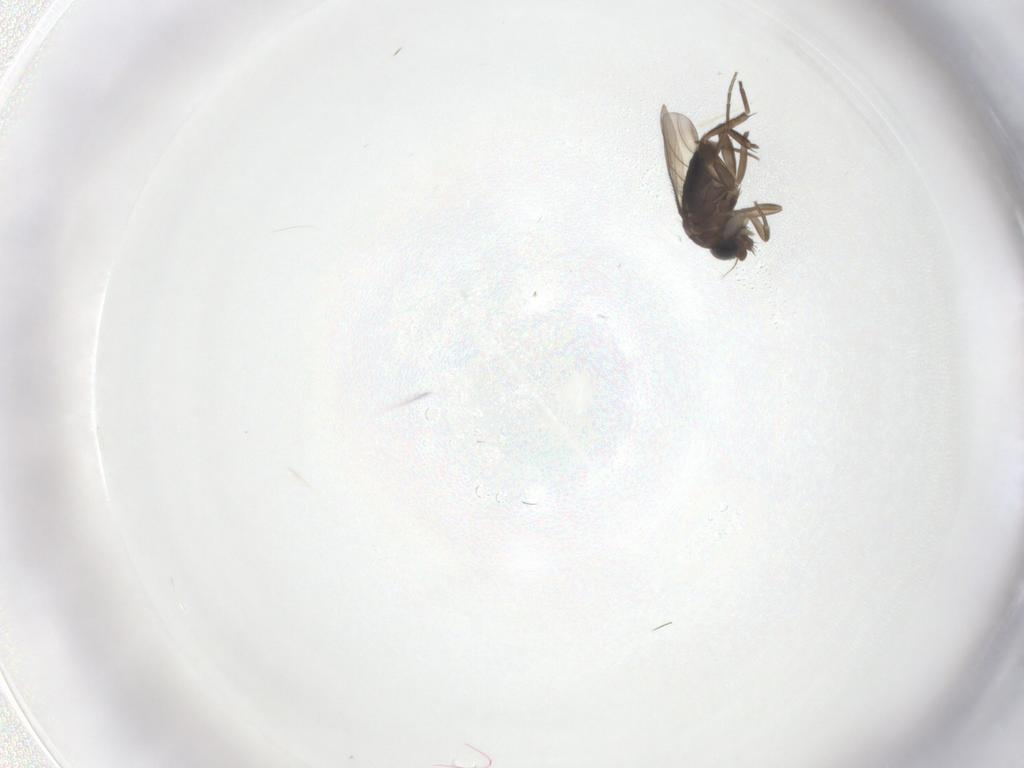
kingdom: Animalia
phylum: Arthropoda
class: Insecta
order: Diptera
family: Phoridae
